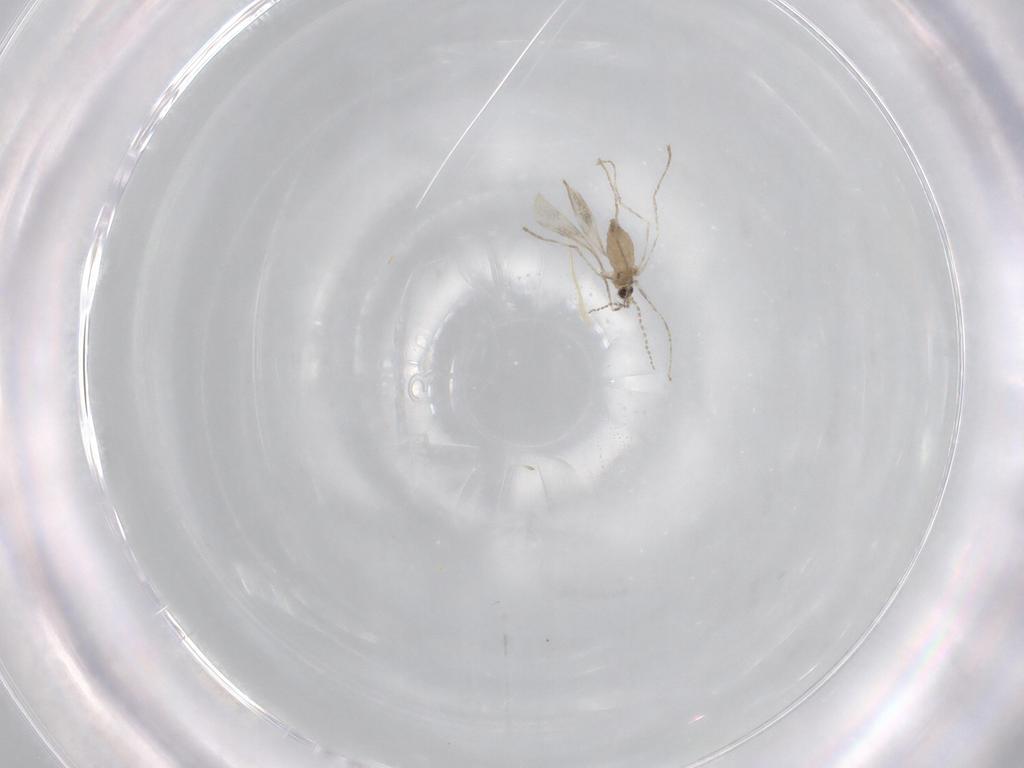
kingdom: Animalia
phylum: Arthropoda
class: Insecta
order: Diptera
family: Cecidomyiidae
